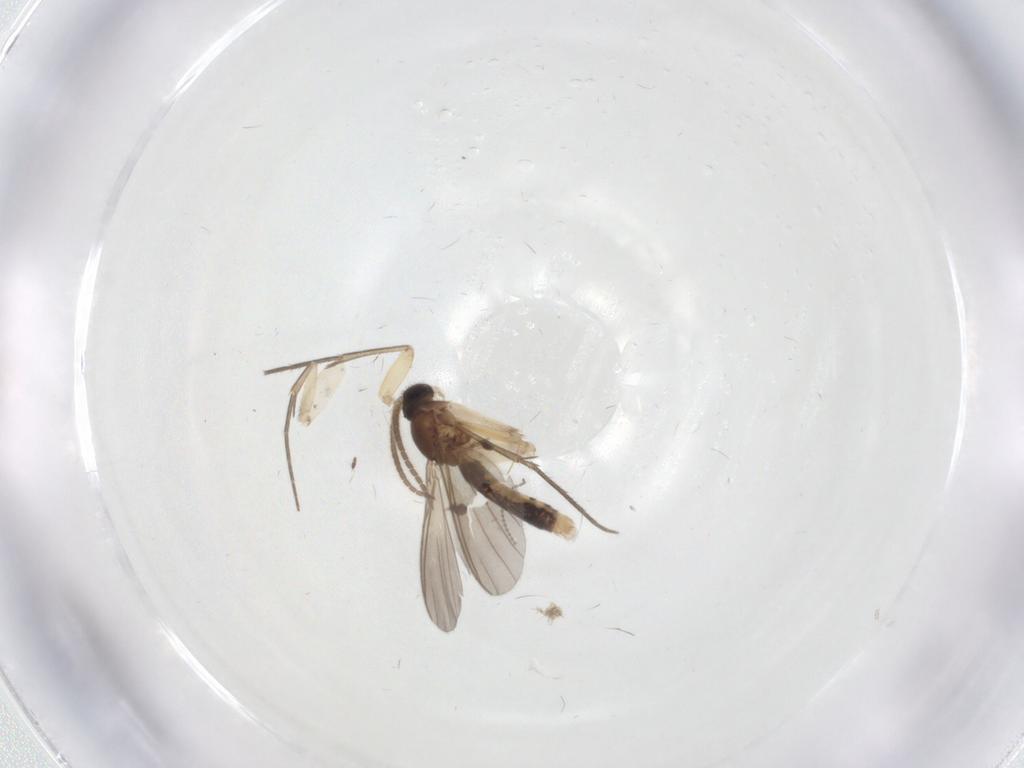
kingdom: Animalia
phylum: Arthropoda
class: Insecta
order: Diptera
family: Mycetophilidae
